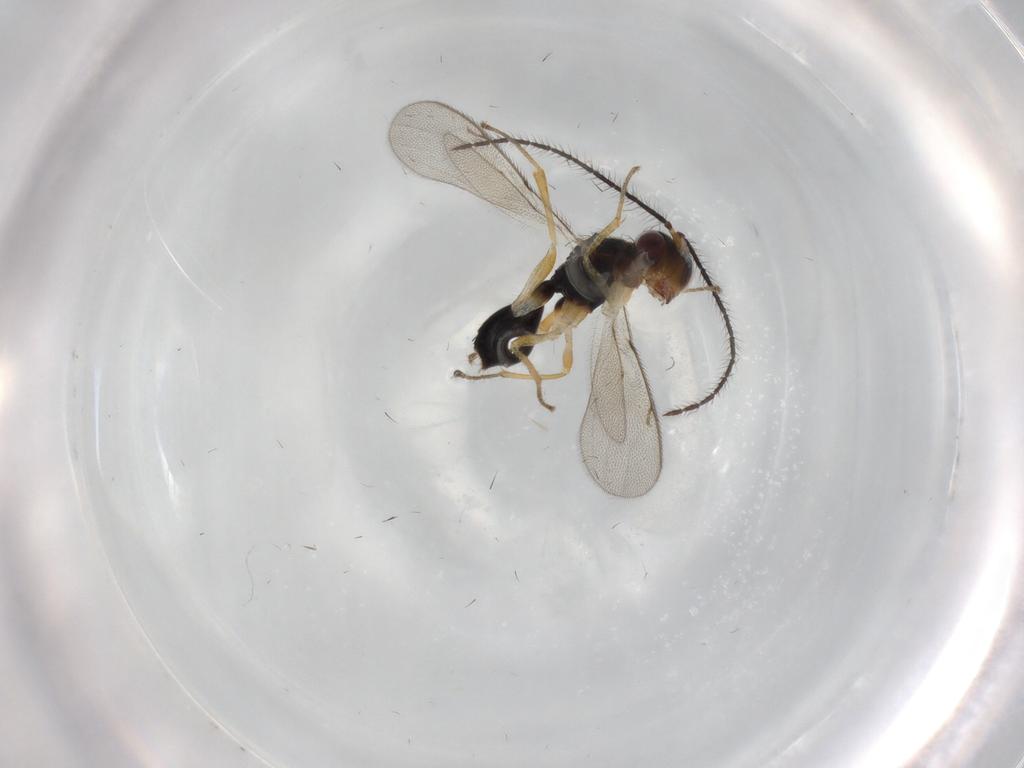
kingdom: Animalia
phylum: Arthropoda
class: Insecta
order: Hymenoptera
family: Diparidae
